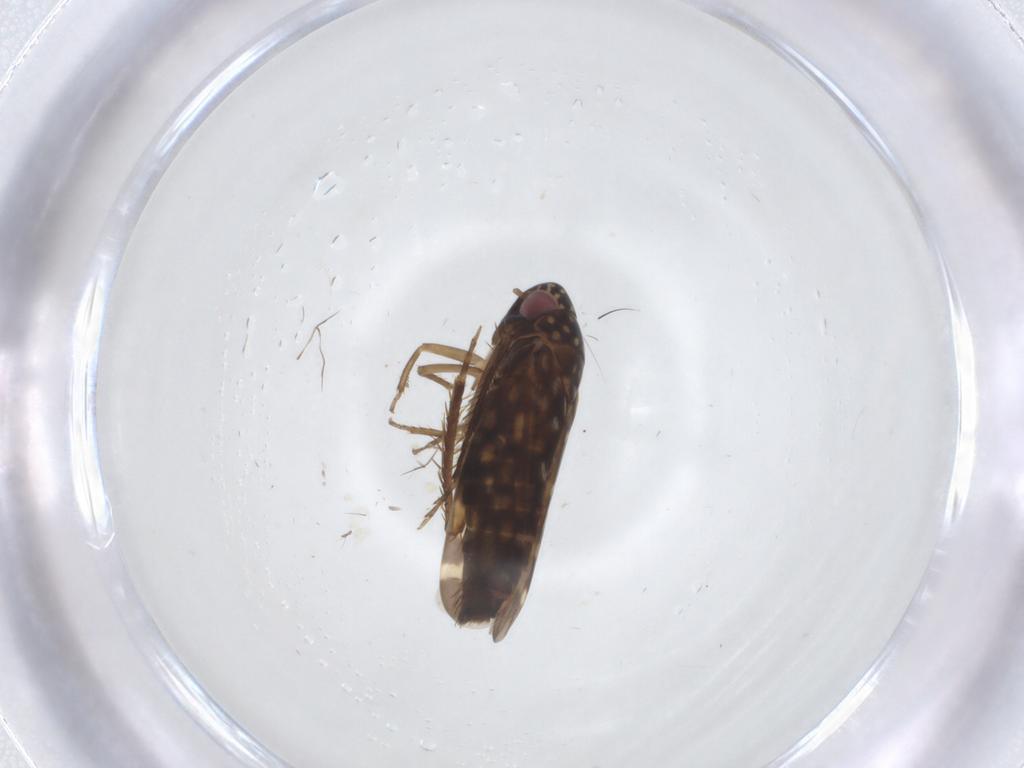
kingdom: Animalia
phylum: Arthropoda
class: Insecta
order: Hemiptera
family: Cicadellidae
